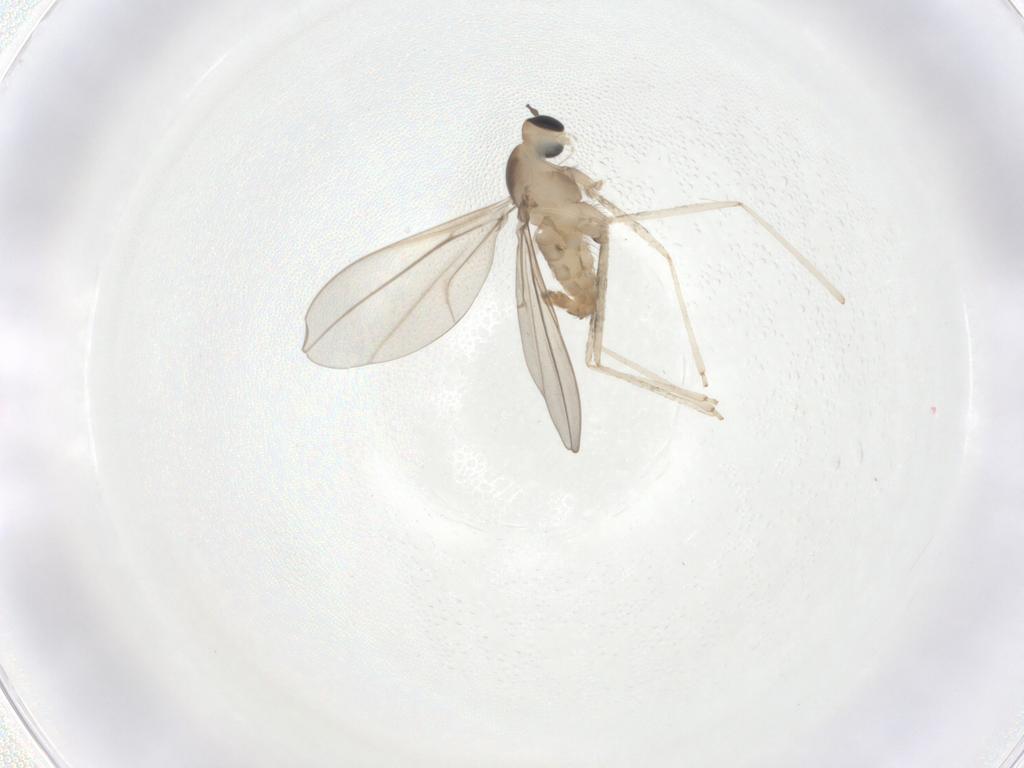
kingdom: Animalia
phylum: Arthropoda
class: Insecta
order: Diptera
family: Cecidomyiidae
